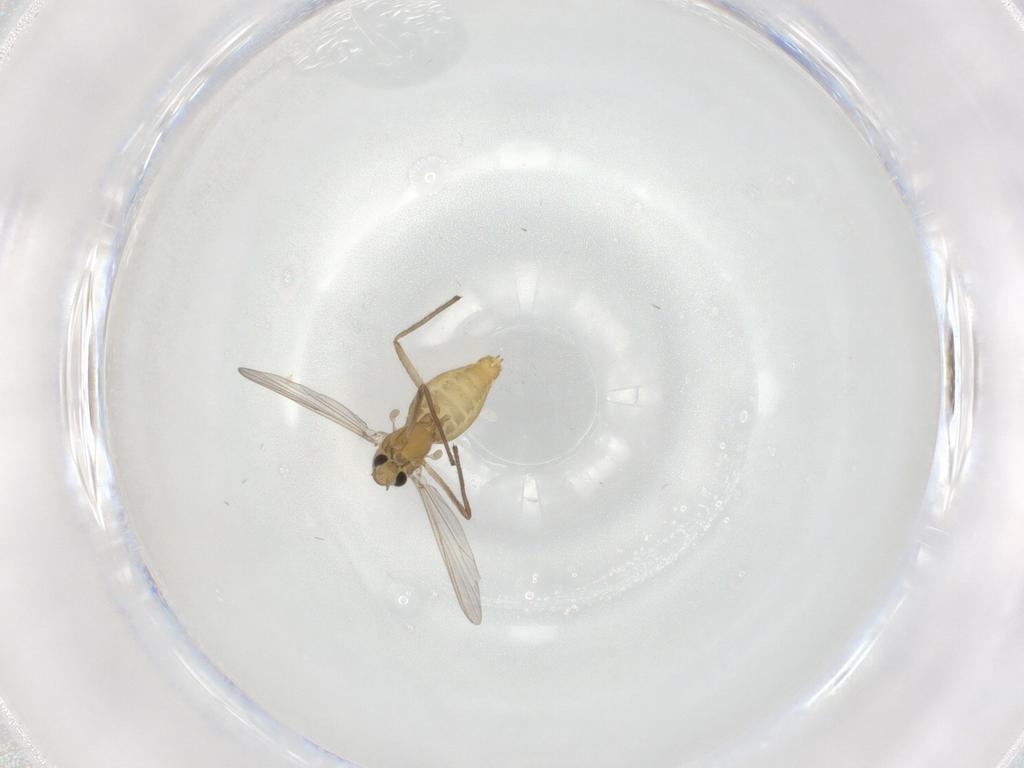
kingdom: Animalia
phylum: Arthropoda
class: Insecta
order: Diptera
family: Chironomidae
